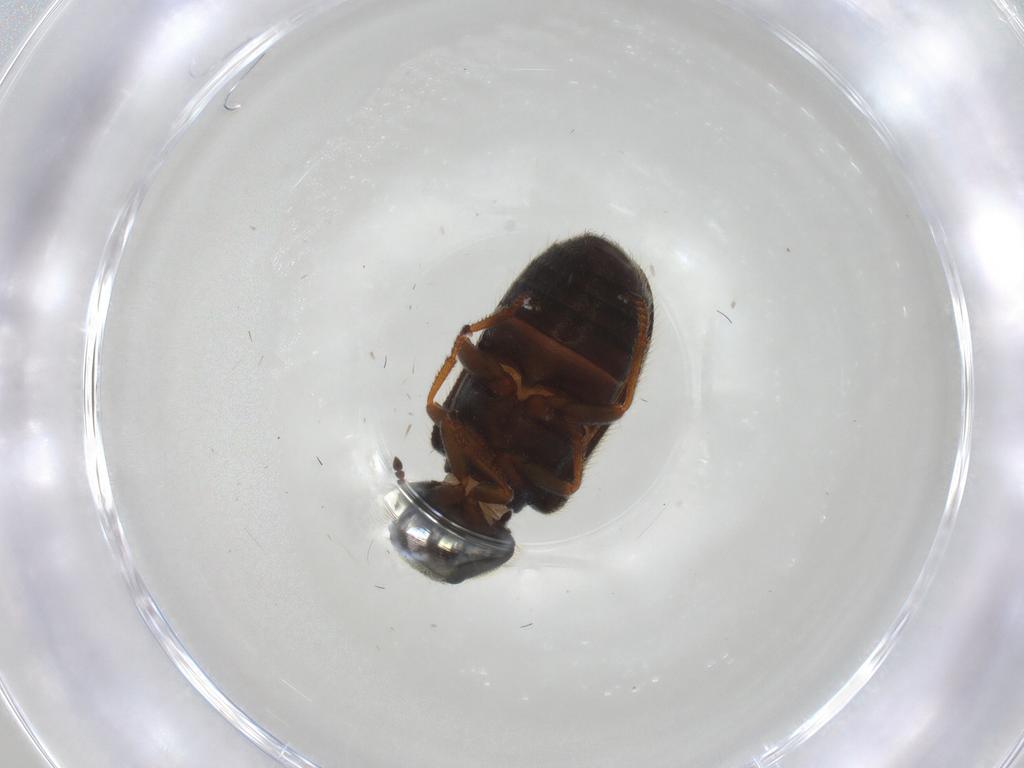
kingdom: Animalia
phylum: Arthropoda
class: Insecta
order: Coleoptera
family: Melyridae
